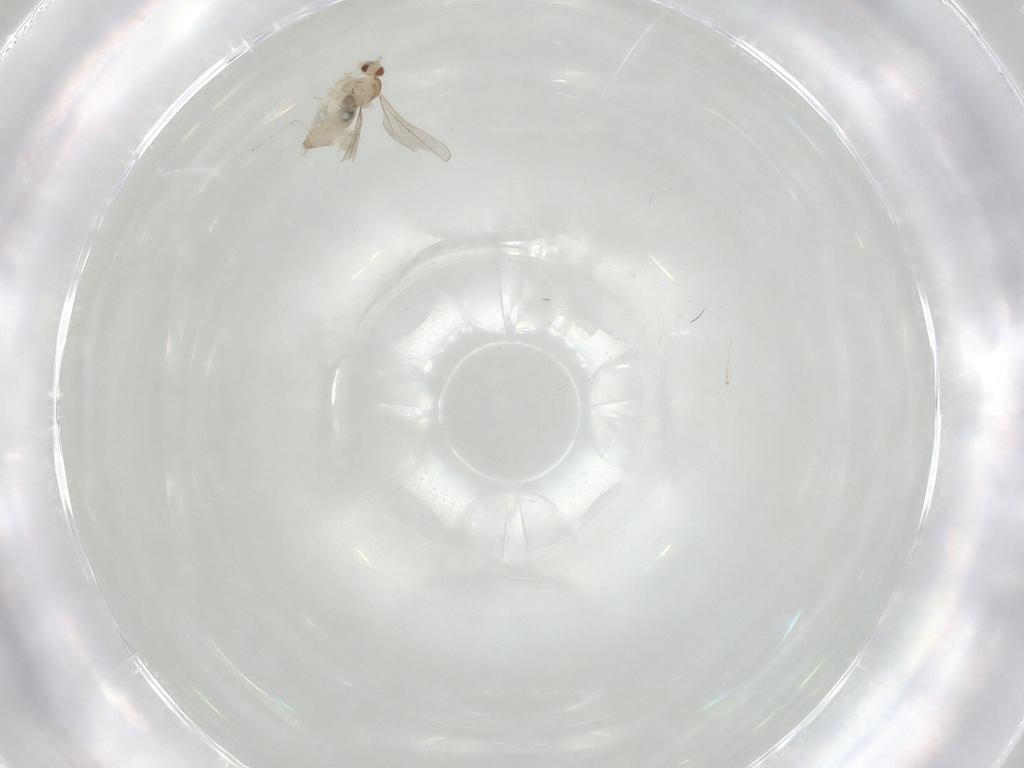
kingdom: Animalia
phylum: Arthropoda
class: Insecta
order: Diptera
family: Cecidomyiidae
